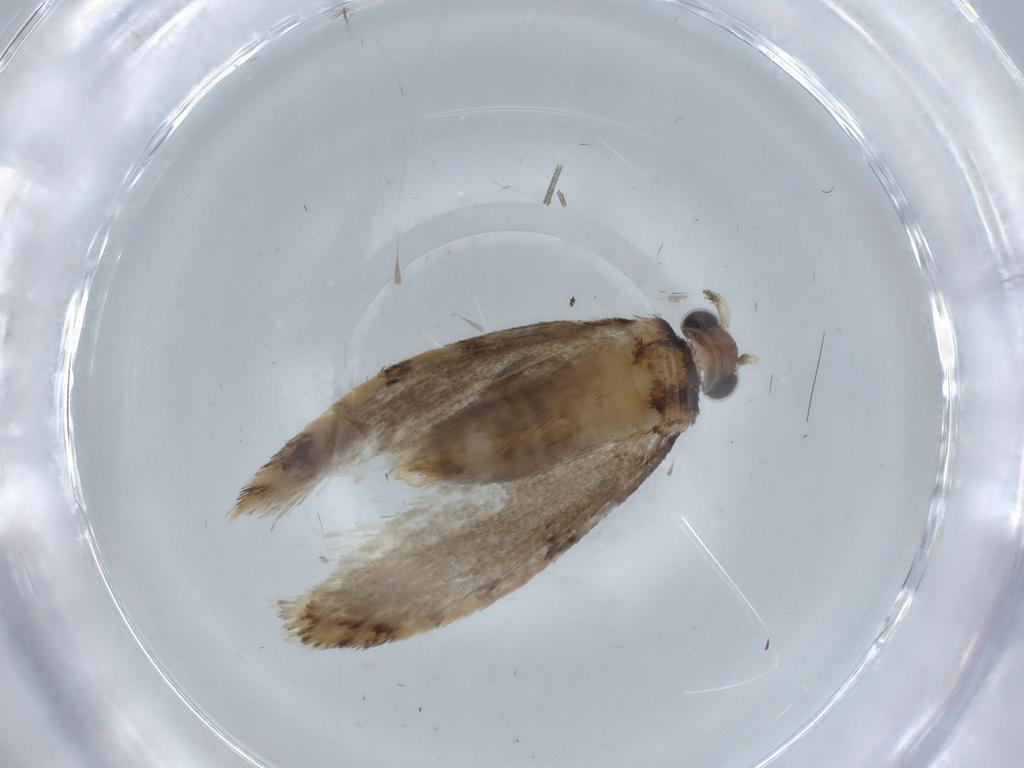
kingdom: Animalia
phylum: Arthropoda
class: Insecta
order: Lepidoptera
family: Tineidae
